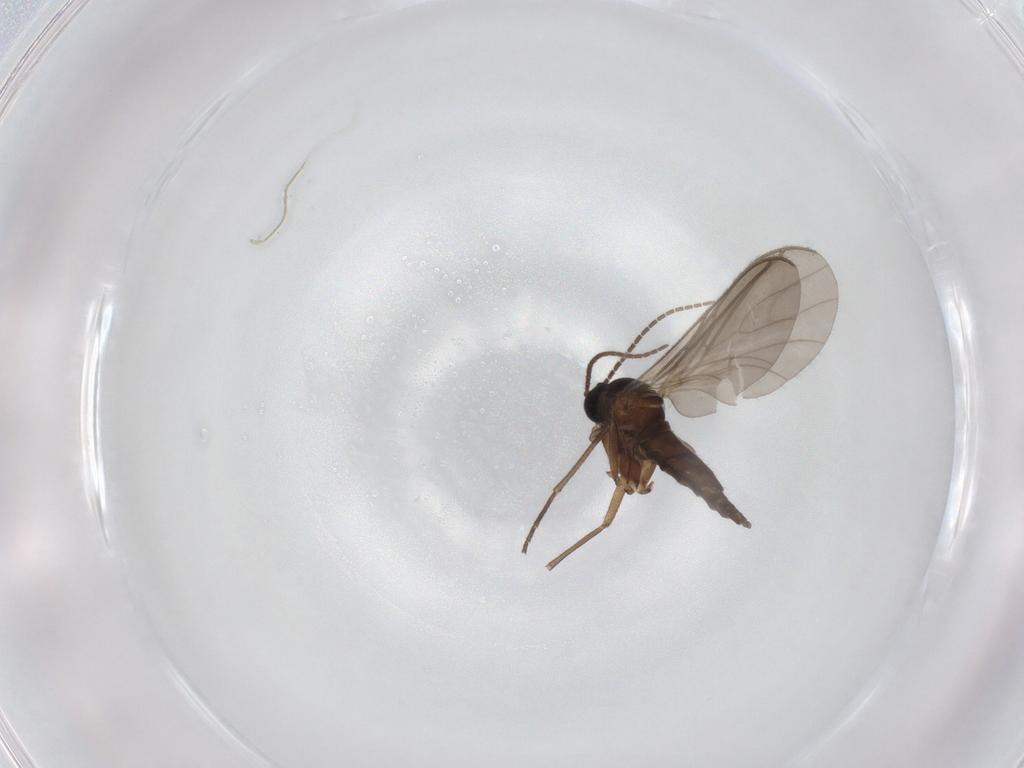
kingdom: Animalia
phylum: Arthropoda
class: Insecta
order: Diptera
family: Sciaridae
